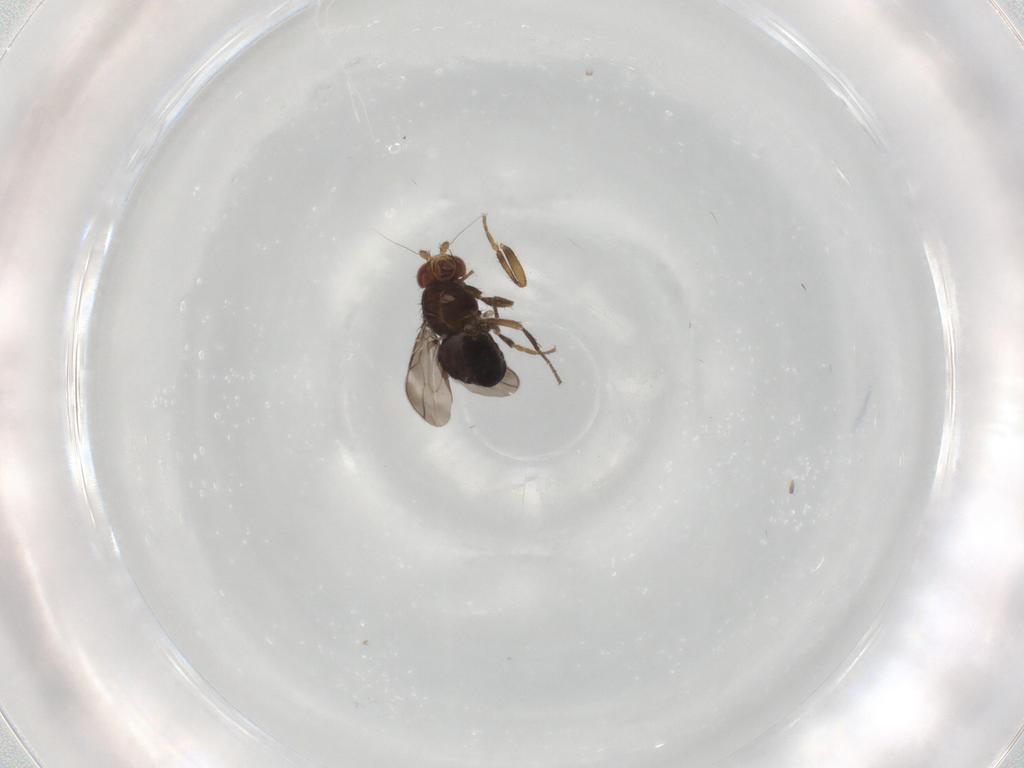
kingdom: Animalia
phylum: Arthropoda
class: Insecta
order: Diptera
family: Sphaeroceridae
